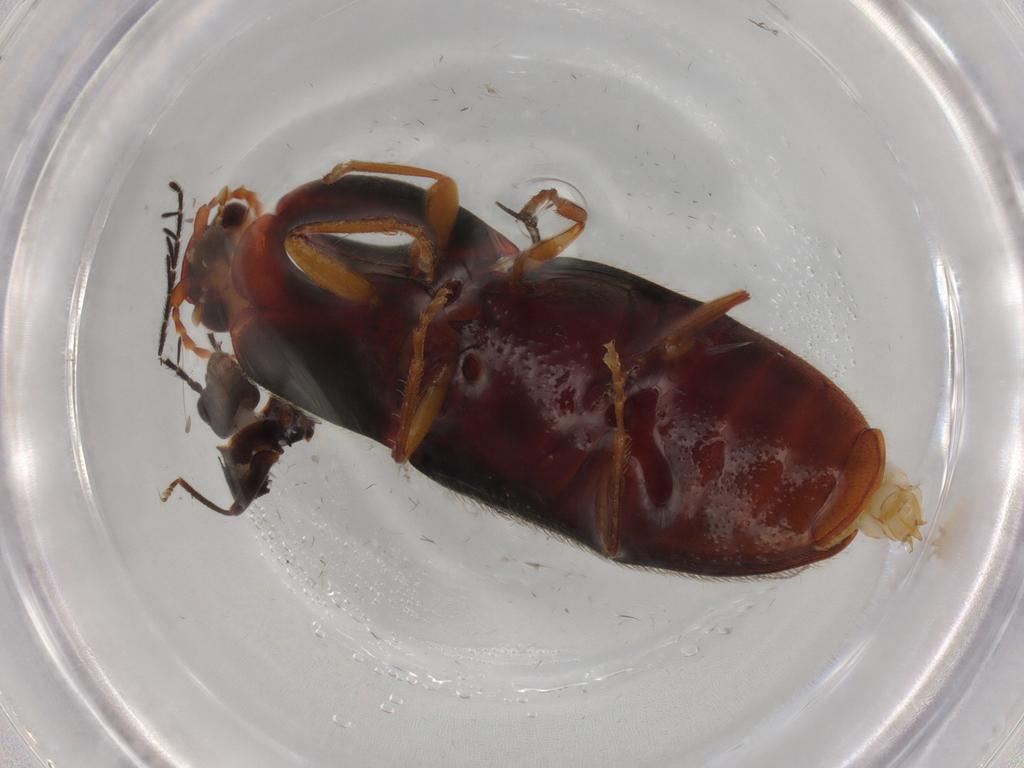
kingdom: Animalia
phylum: Arthropoda
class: Insecta
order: Coleoptera
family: Ptilodactylidae
